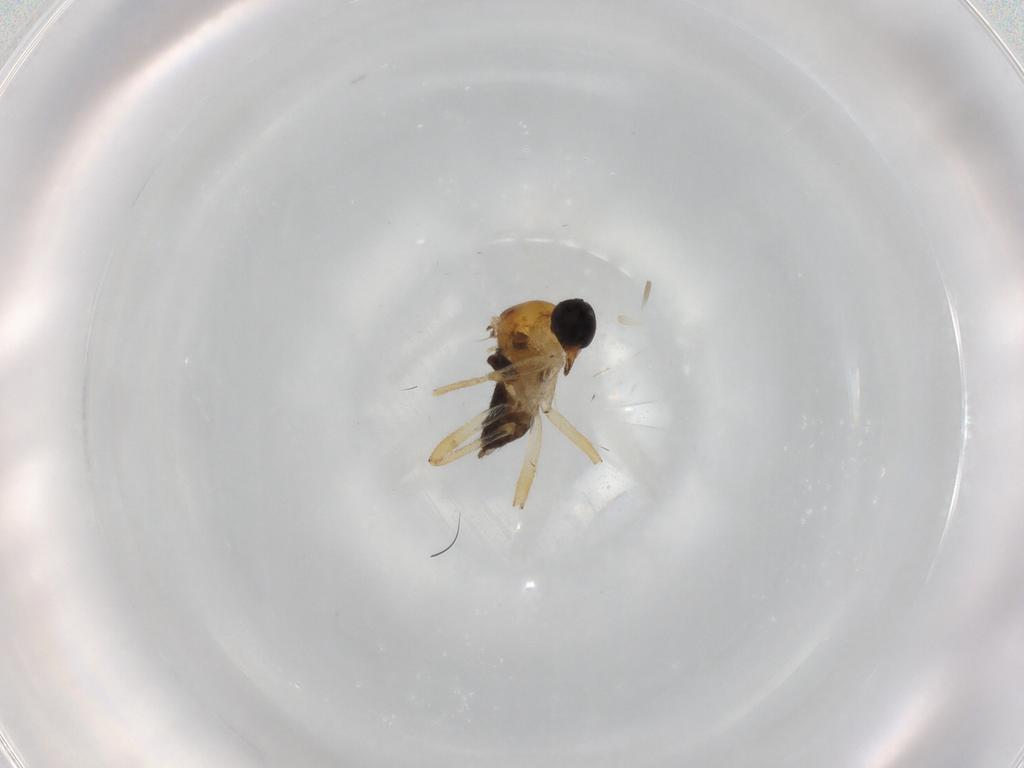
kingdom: Animalia
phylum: Arthropoda
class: Insecta
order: Diptera
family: Hybotidae
